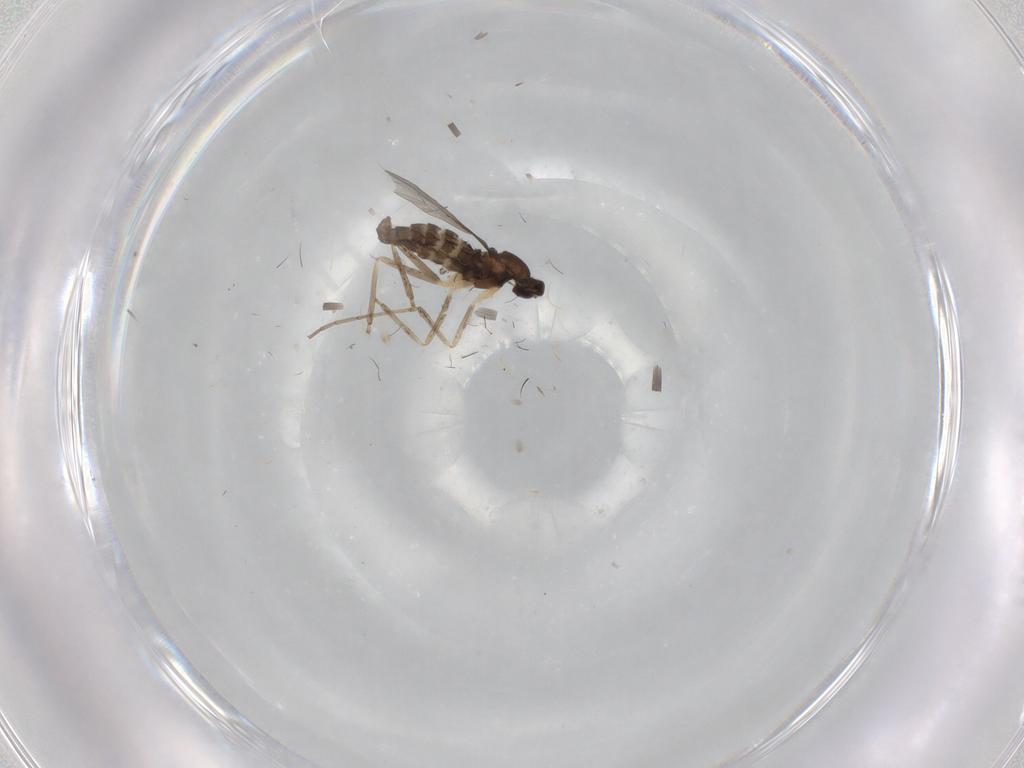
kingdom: Animalia
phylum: Arthropoda
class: Insecta
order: Diptera
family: Cecidomyiidae
